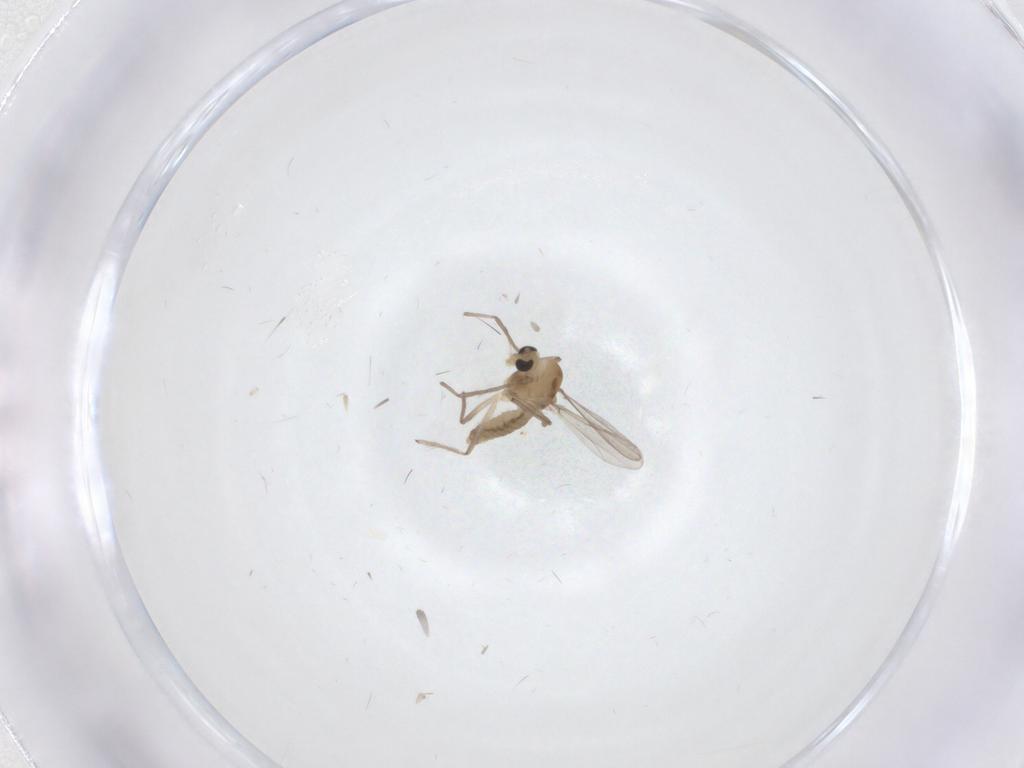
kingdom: Animalia
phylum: Arthropoda
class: Insecta
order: Diptera
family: Chironomidae
